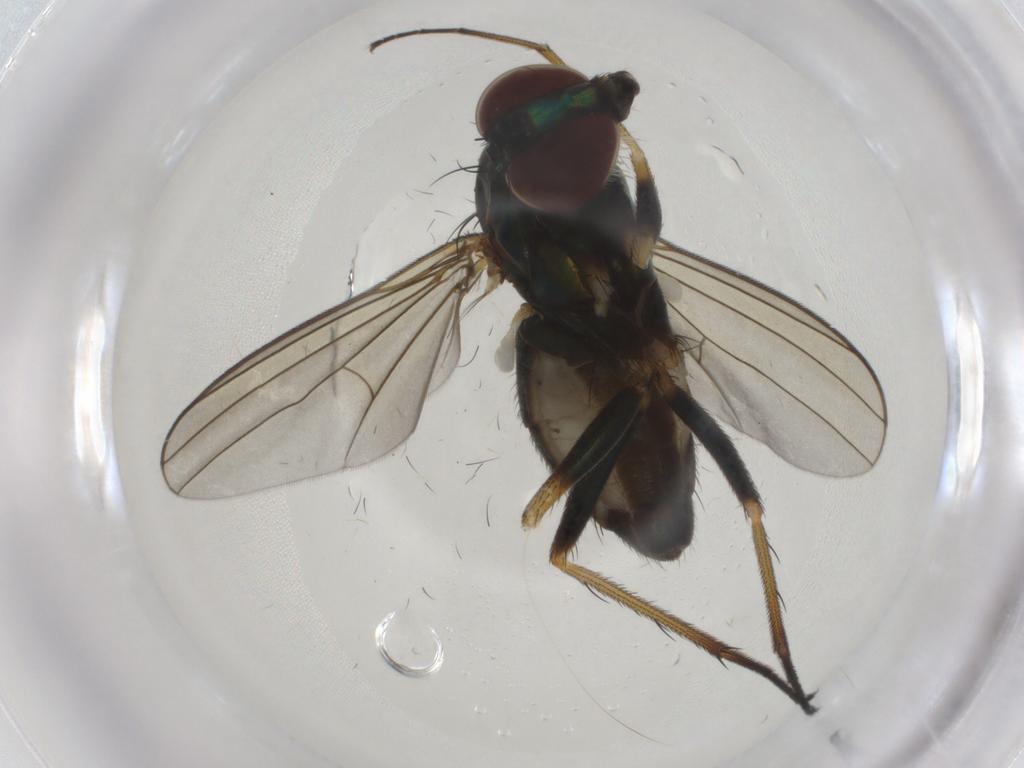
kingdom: Animalia
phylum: Arthropoda
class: Insecta
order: Diptera
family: Dolichopodidae
